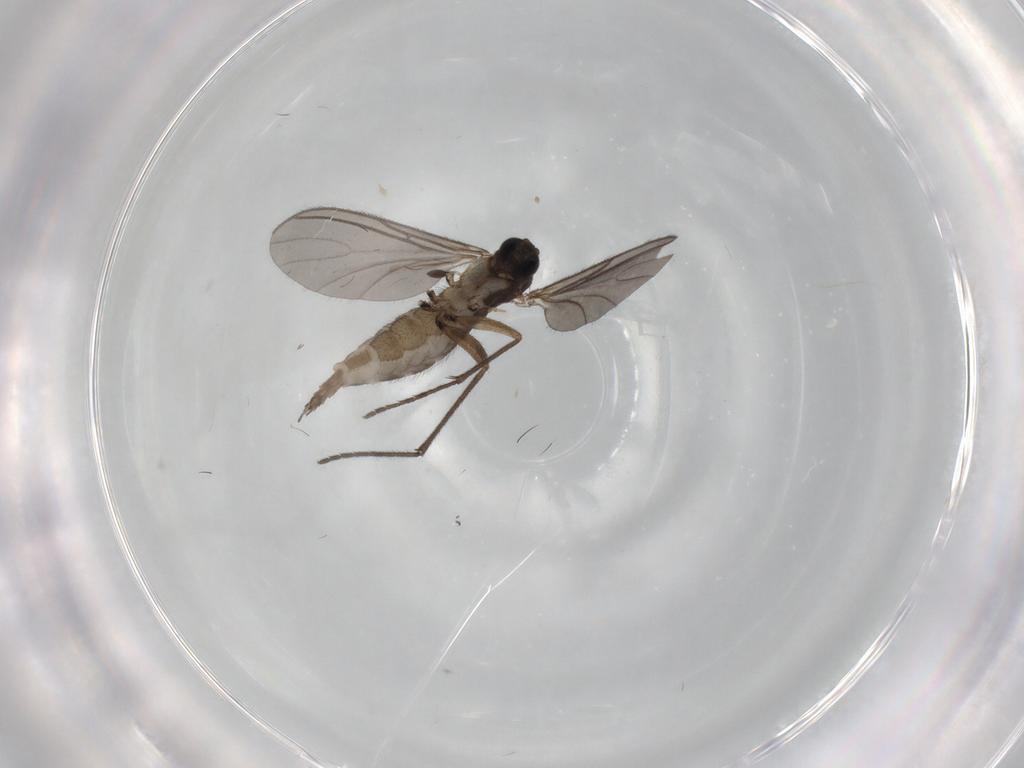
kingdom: Animalia
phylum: Arthropoda
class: Insecta
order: Diptera
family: Sciaridae
